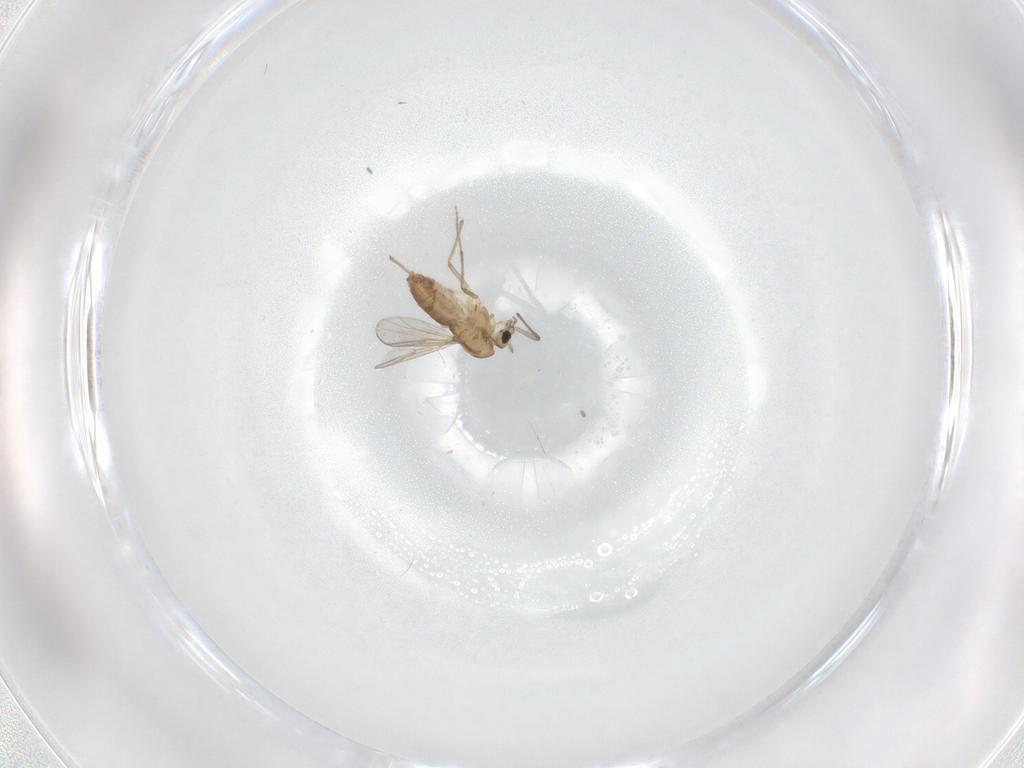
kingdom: Animalia
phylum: Arthropoda
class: Insecta
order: Diptera
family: Chironomidae
